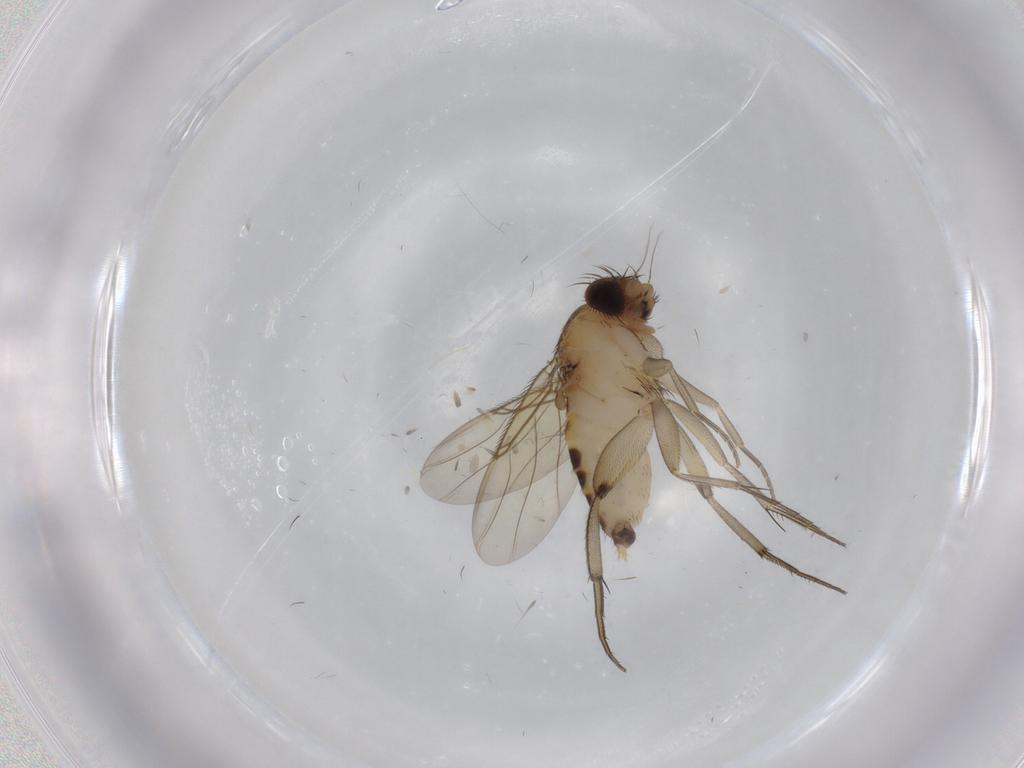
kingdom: Animalia
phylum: Arthropoda
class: Insecta
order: Diptera
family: Phoridae
